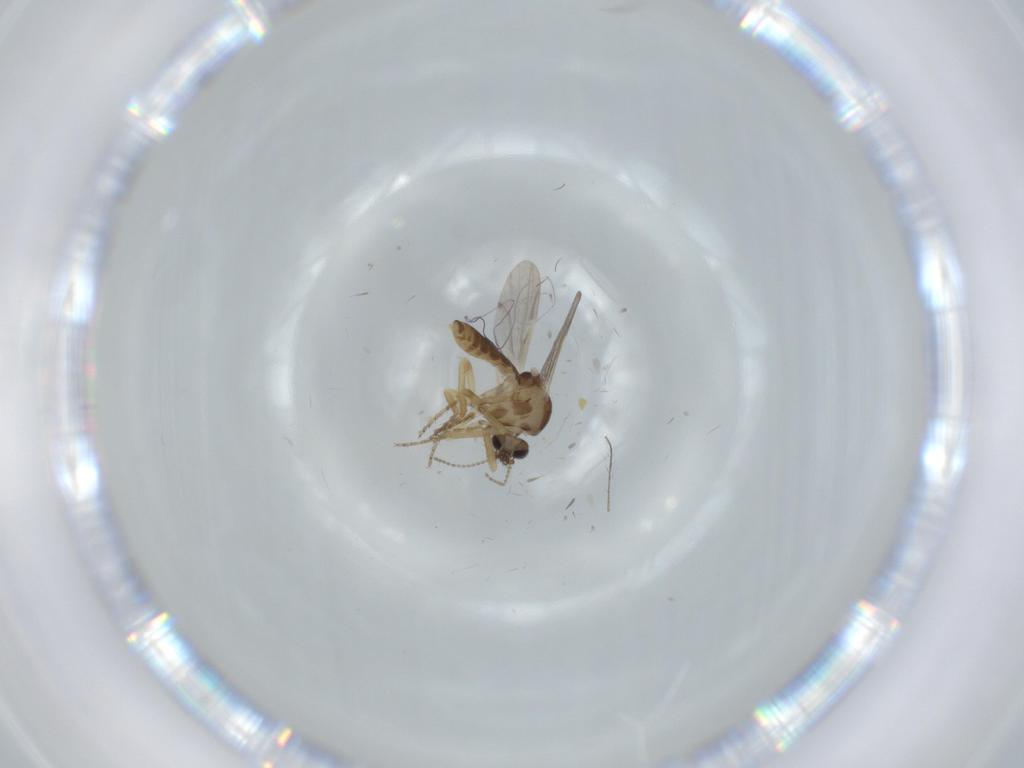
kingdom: Animalia
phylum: Arthropoda
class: Insecta
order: Diptera
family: Ceratopogonidae
